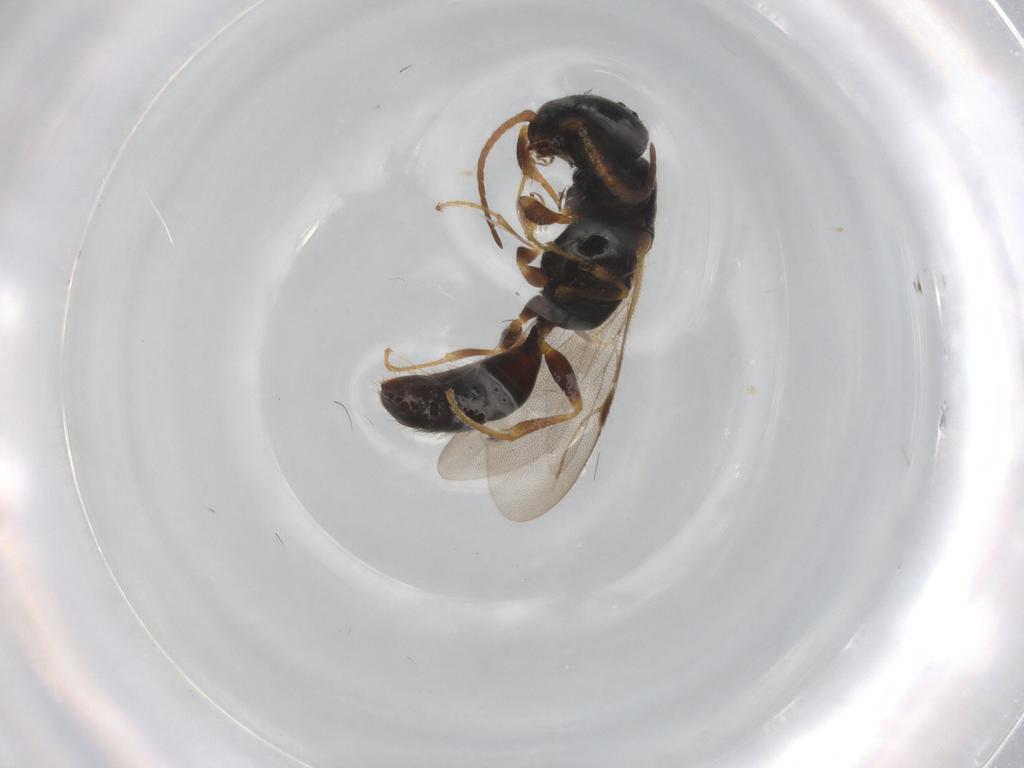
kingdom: Animalia
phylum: Arthropoda
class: Insecta
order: Hymenoptera
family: Bethylidae
